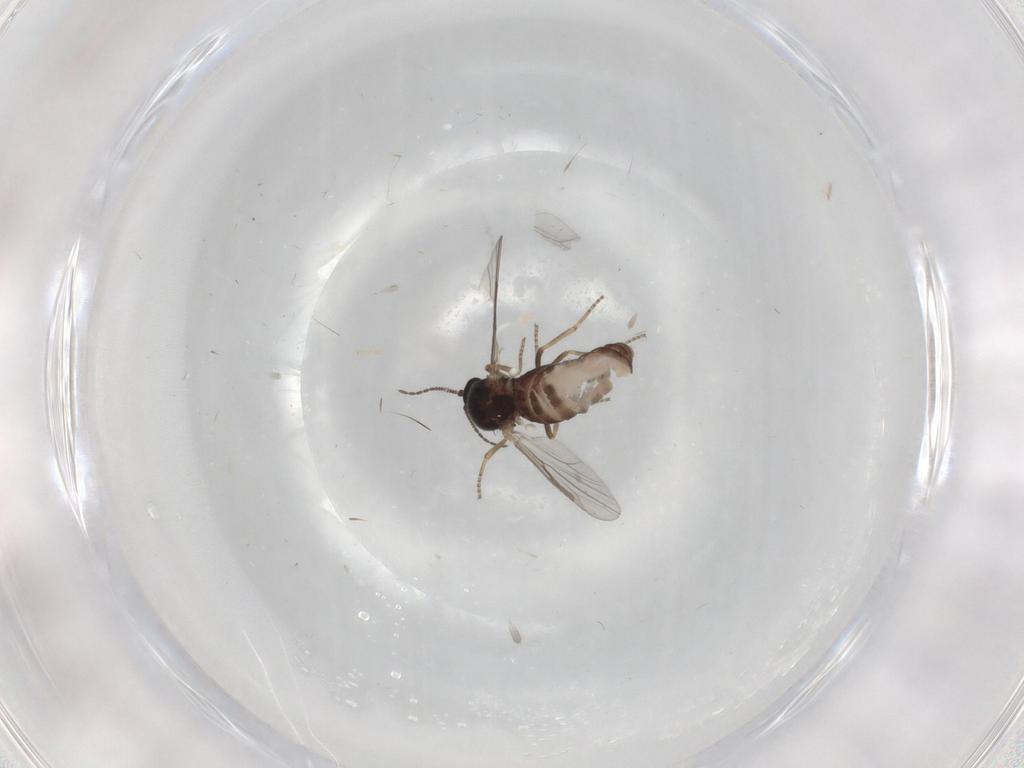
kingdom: Animalia
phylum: Arthropoda
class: Insecta
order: Diptera
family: Ceratopogonidae
